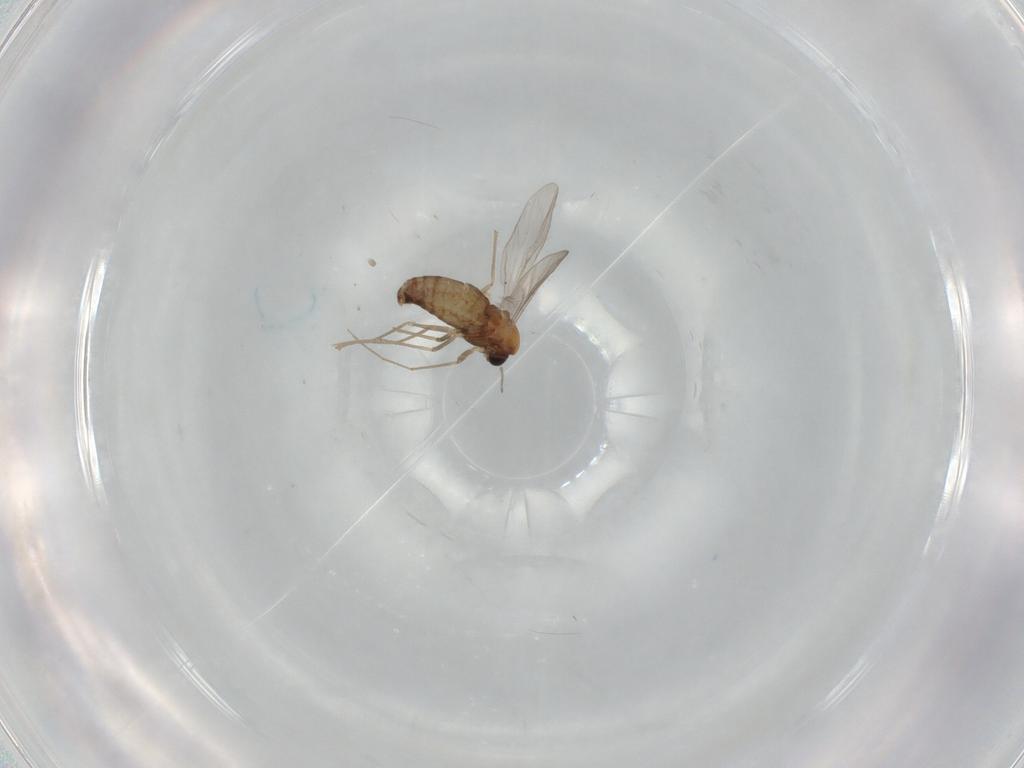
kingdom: Animalia
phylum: Arthropoda
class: Insecta
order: Diptera
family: Chironomidae
